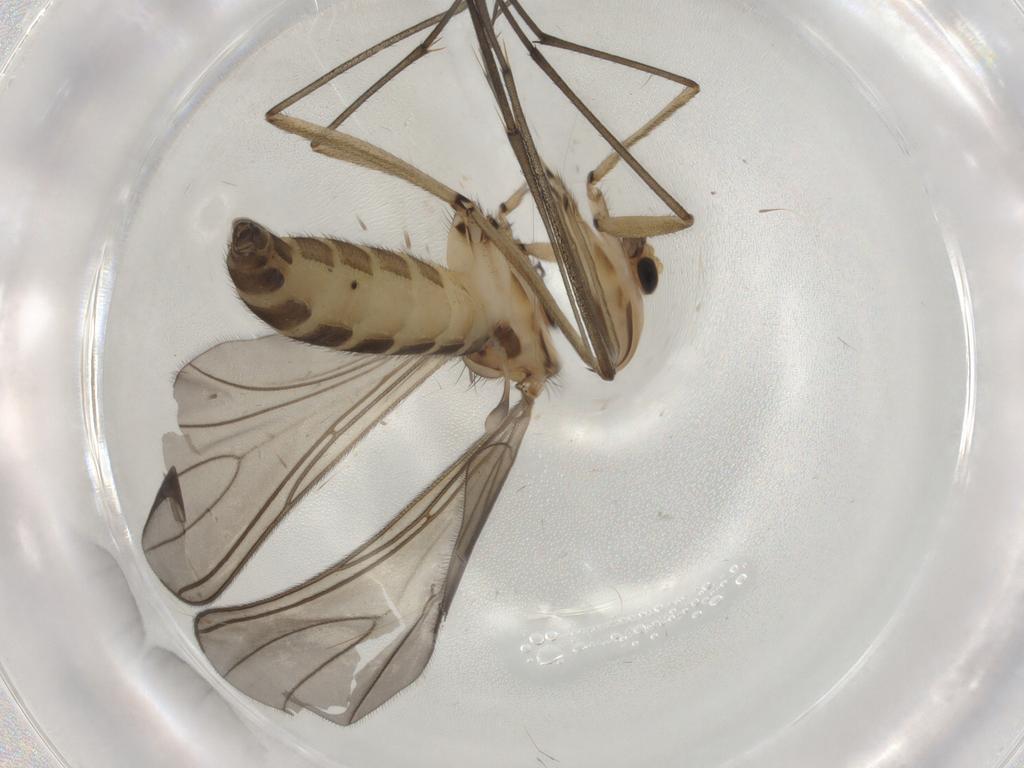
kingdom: Animalia
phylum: Arthropoda
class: Insecta
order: Diptera
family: Sciaridae
